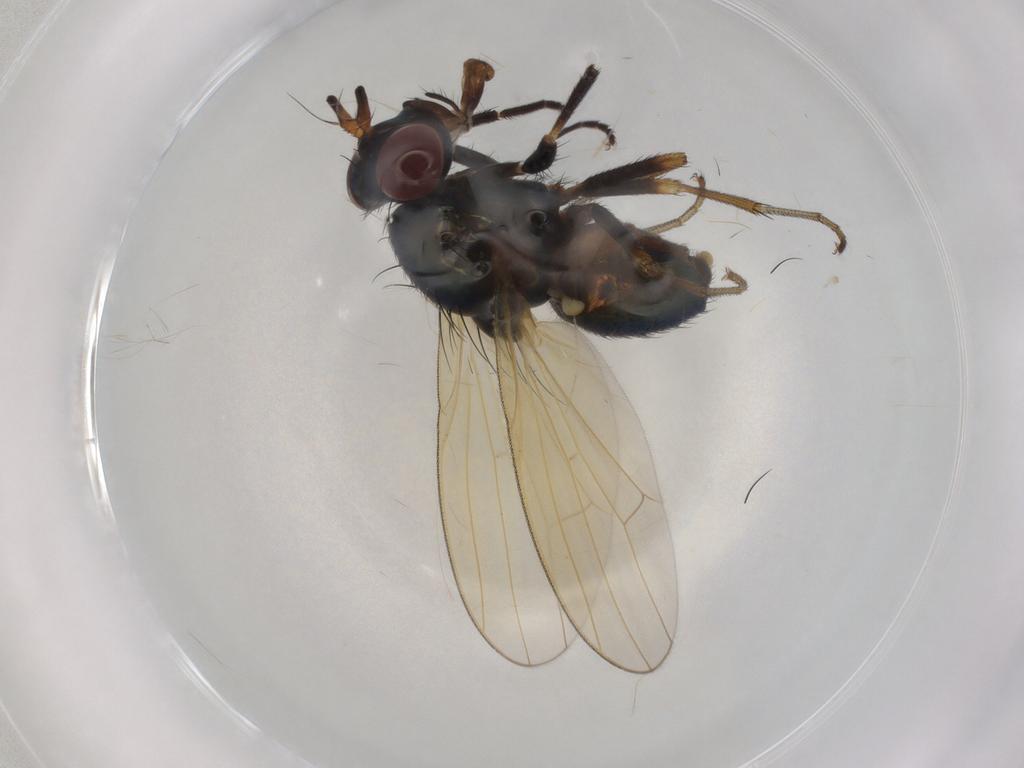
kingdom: Animalia
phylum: Arthropoda
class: Insecta
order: Diptera
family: Lauxaniidae
